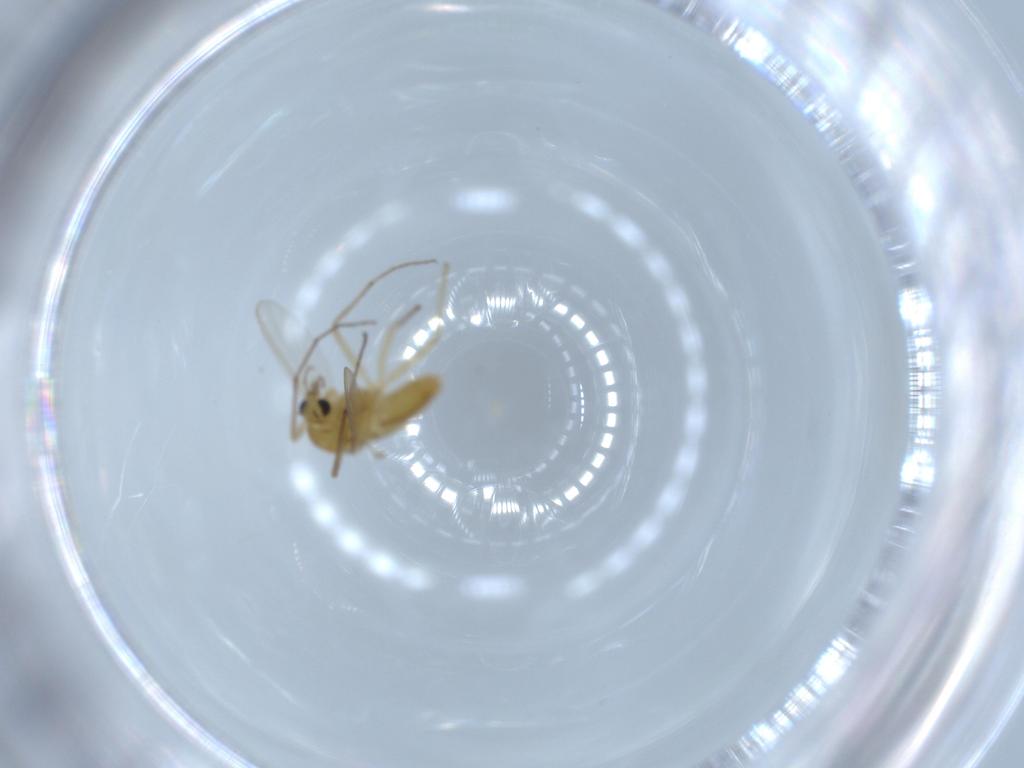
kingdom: Animalia
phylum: Arthropoda
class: Insecta
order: Diptera
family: Chironomidae
